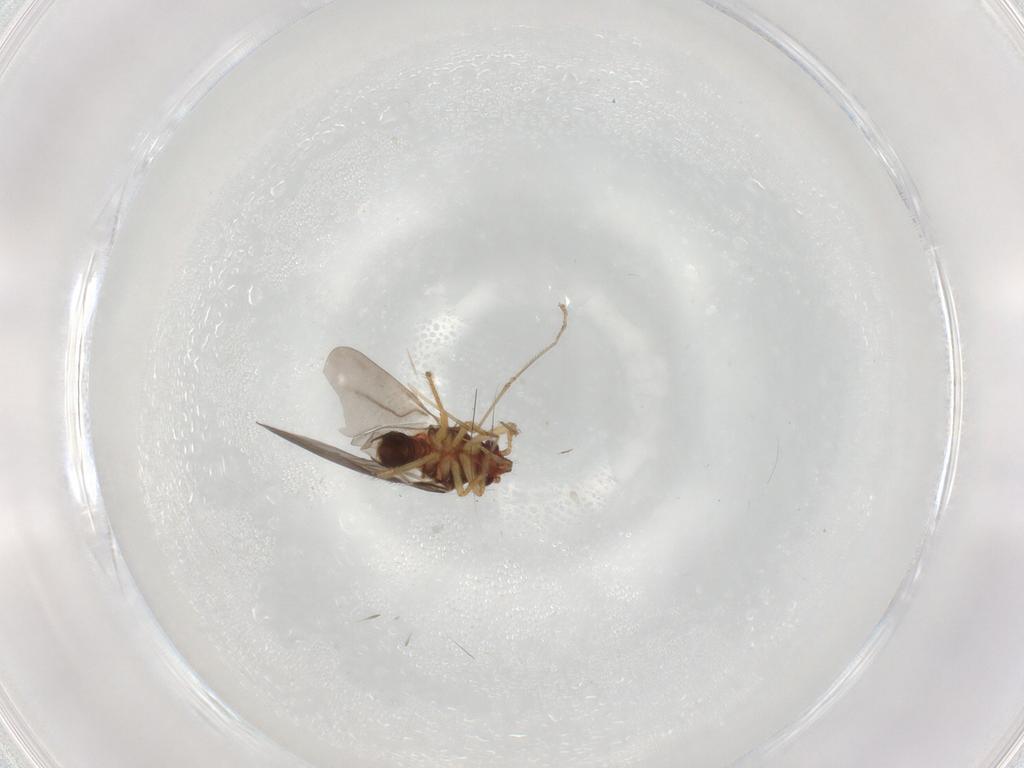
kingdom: Animalia
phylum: Arthropoda
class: Insecta
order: Hemiptera
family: Ceratocombidae
